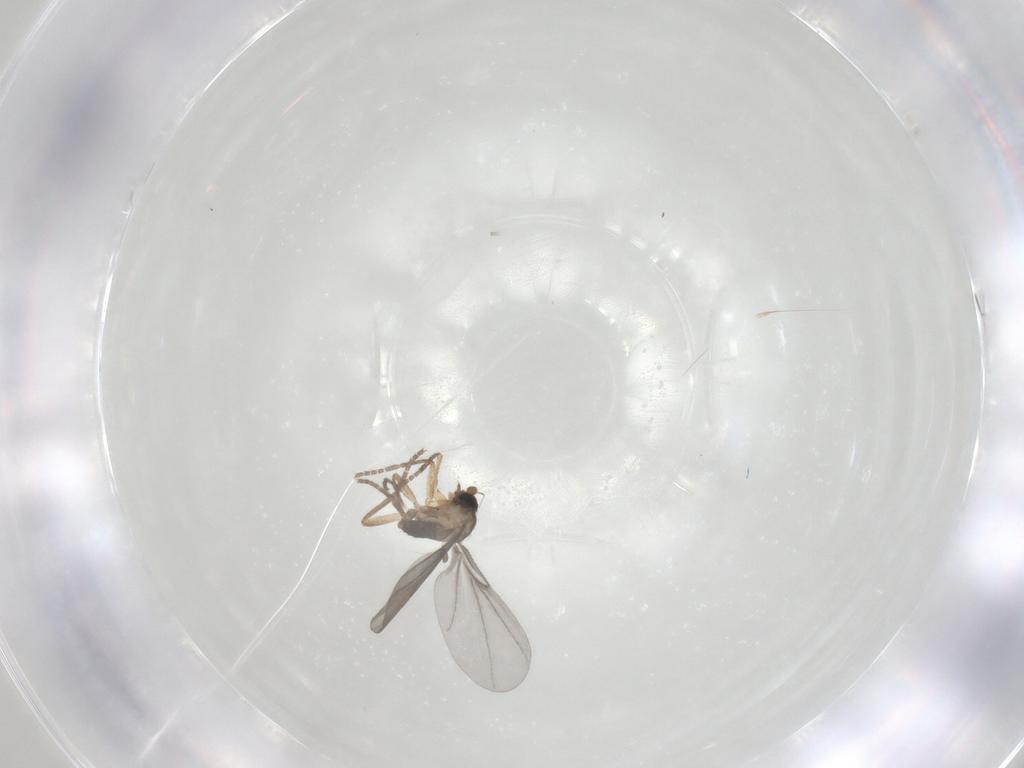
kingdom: Animalia
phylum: Arthropoda
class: Insecta
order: Diptera
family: Phoridae
